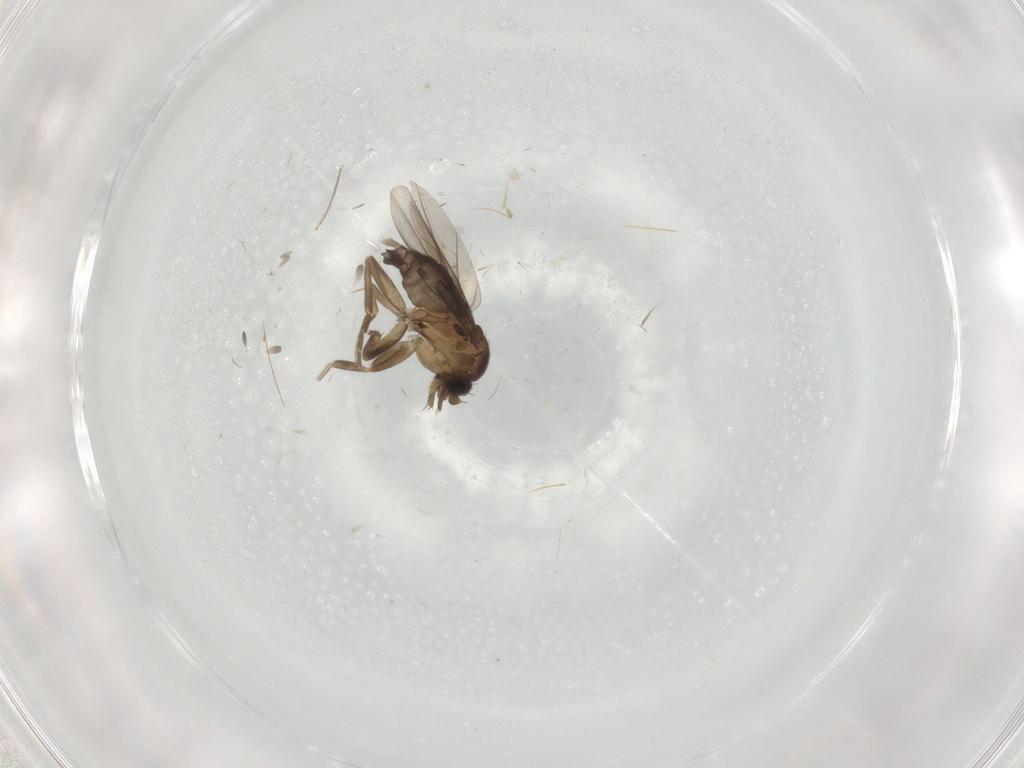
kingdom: Animalia
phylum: Arthropoda
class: Insecta
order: Diptera
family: Chironomidae
